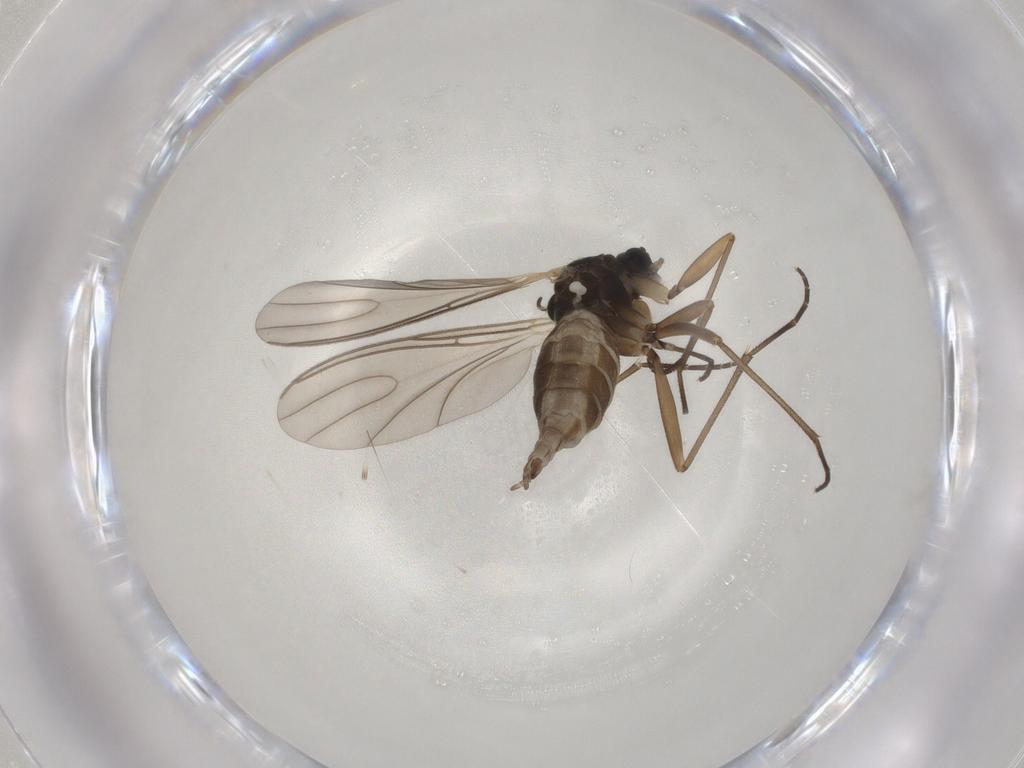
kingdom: Animalia
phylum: Arthropoda
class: Insecta
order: Diptera
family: Sciaridae
